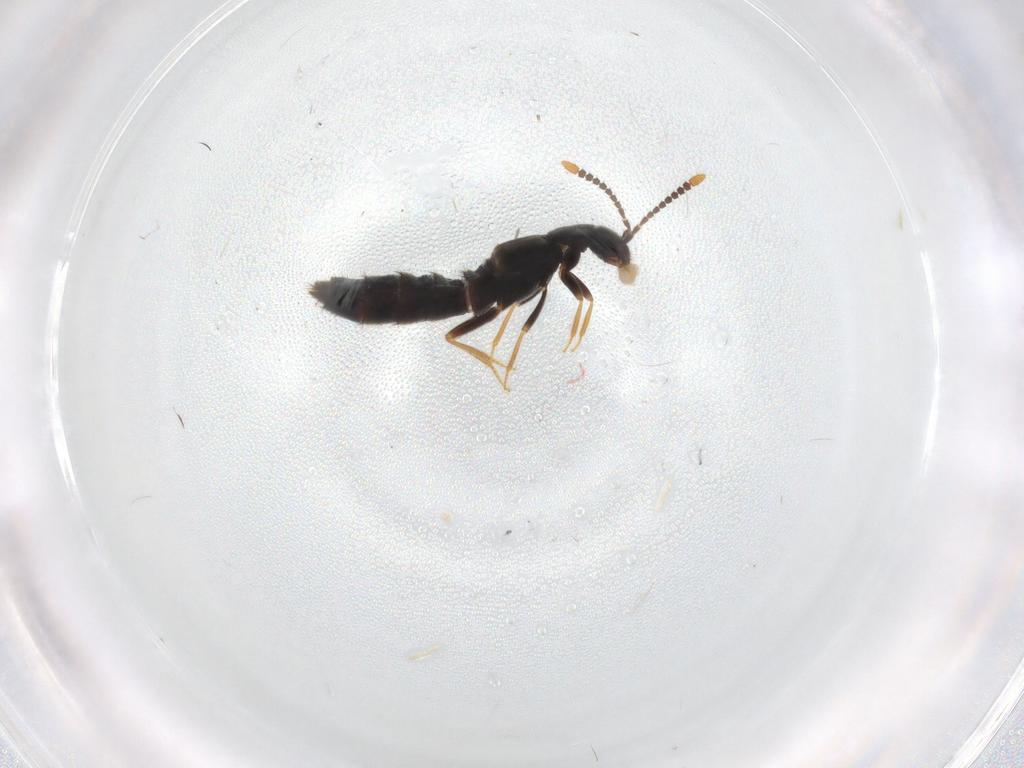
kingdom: Animalia
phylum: Arthropoda
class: Insecta
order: Coleoptera
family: Staphylinidae
